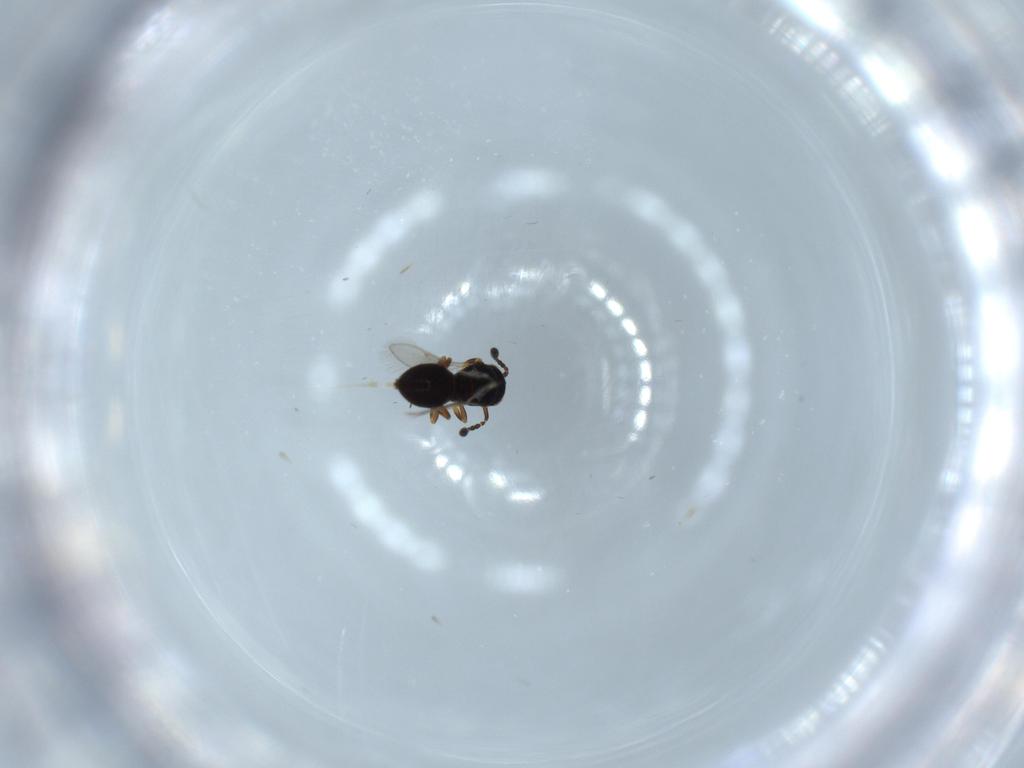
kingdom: Animalia
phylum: Arthropoda
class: Insecta
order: Hymenoptera
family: Scelionidae
